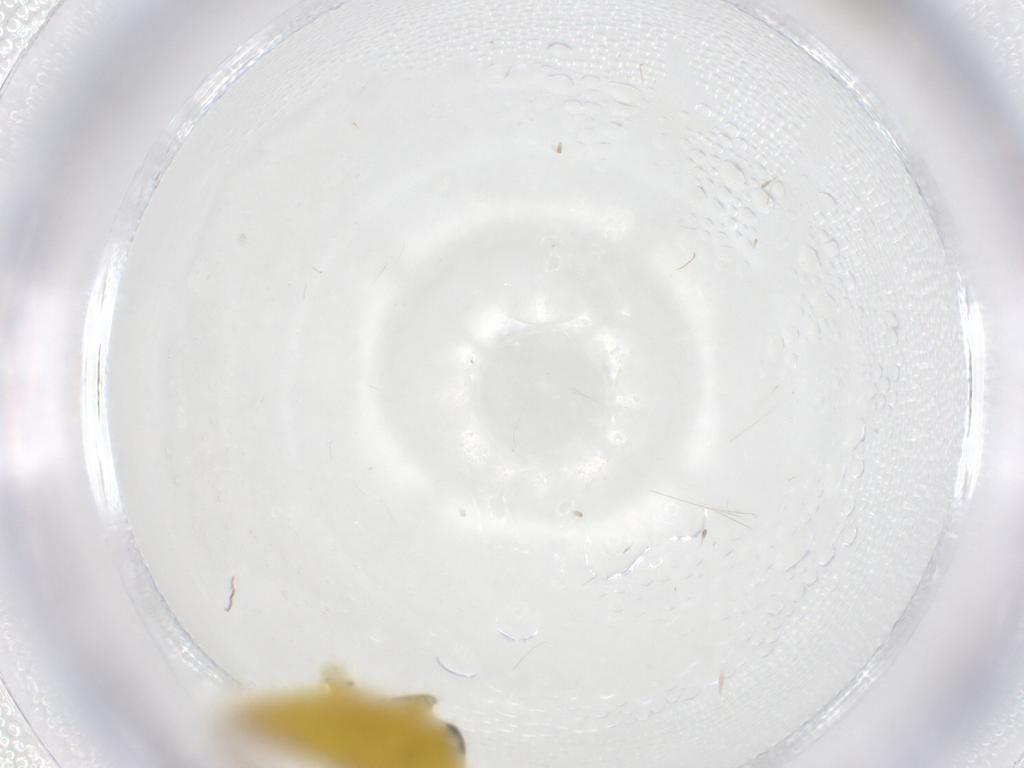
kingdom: Animalia
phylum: Arthropoda
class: Insecta
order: Hemiptera
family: Cicadellidae
